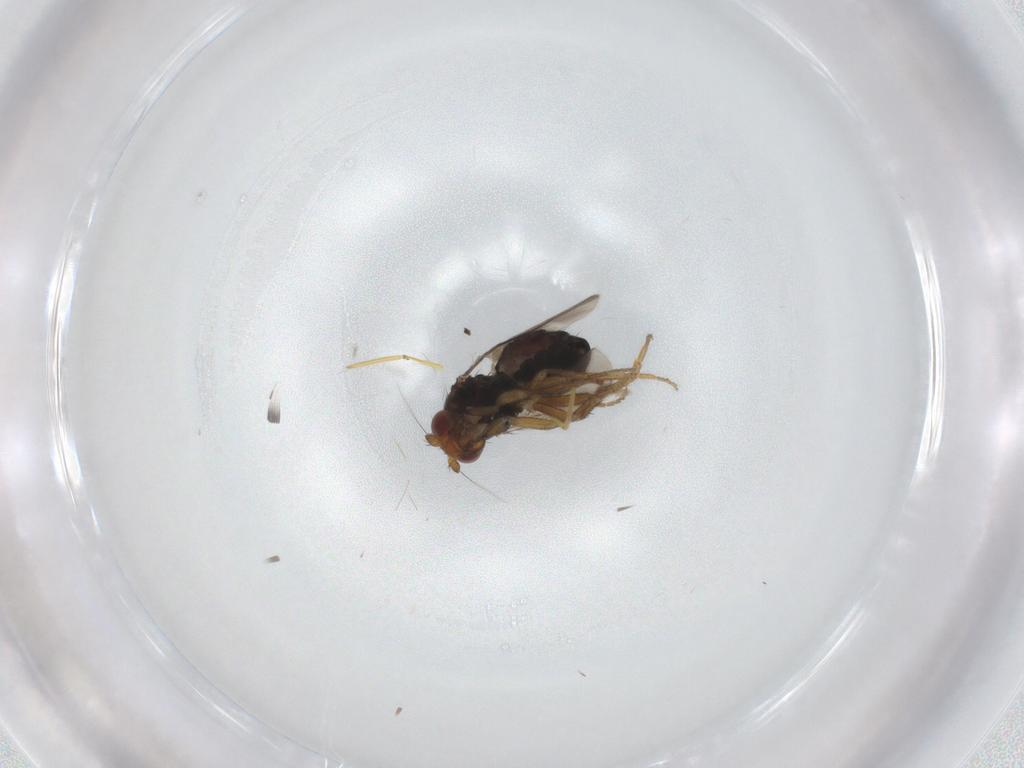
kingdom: Animalia
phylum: Arthropoda
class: Insecta
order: Diptera
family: Sphaeroceridae
